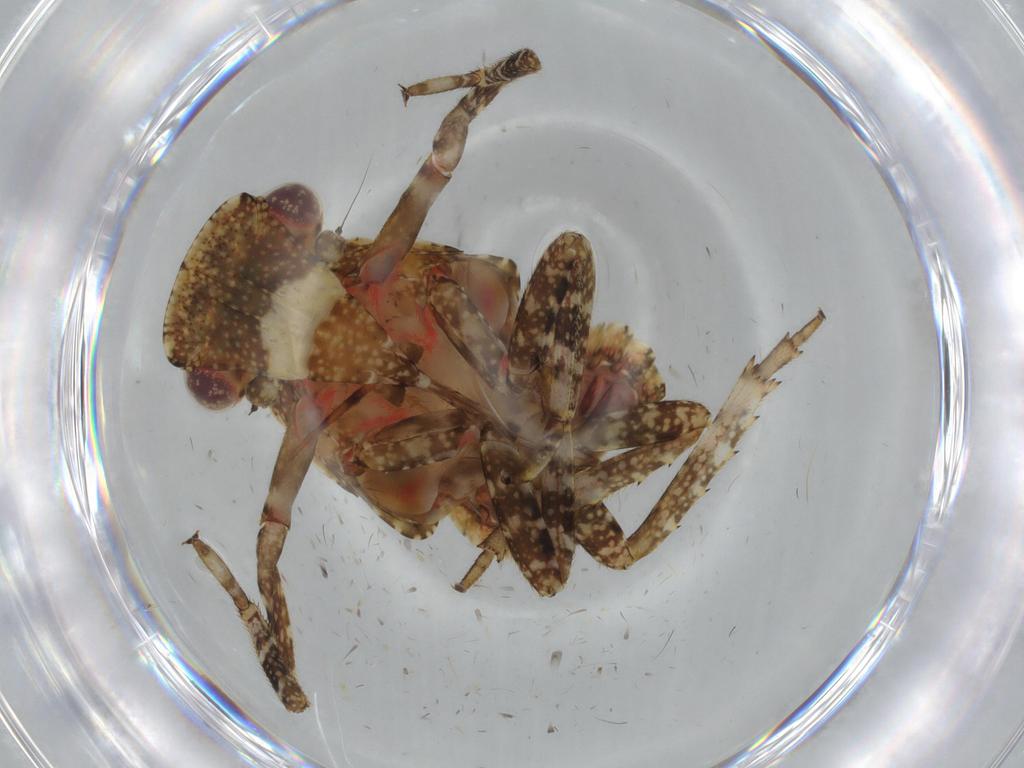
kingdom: Animalia
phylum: Arthropoda
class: Insecta
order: Hemiptera
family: Fulgoridae
